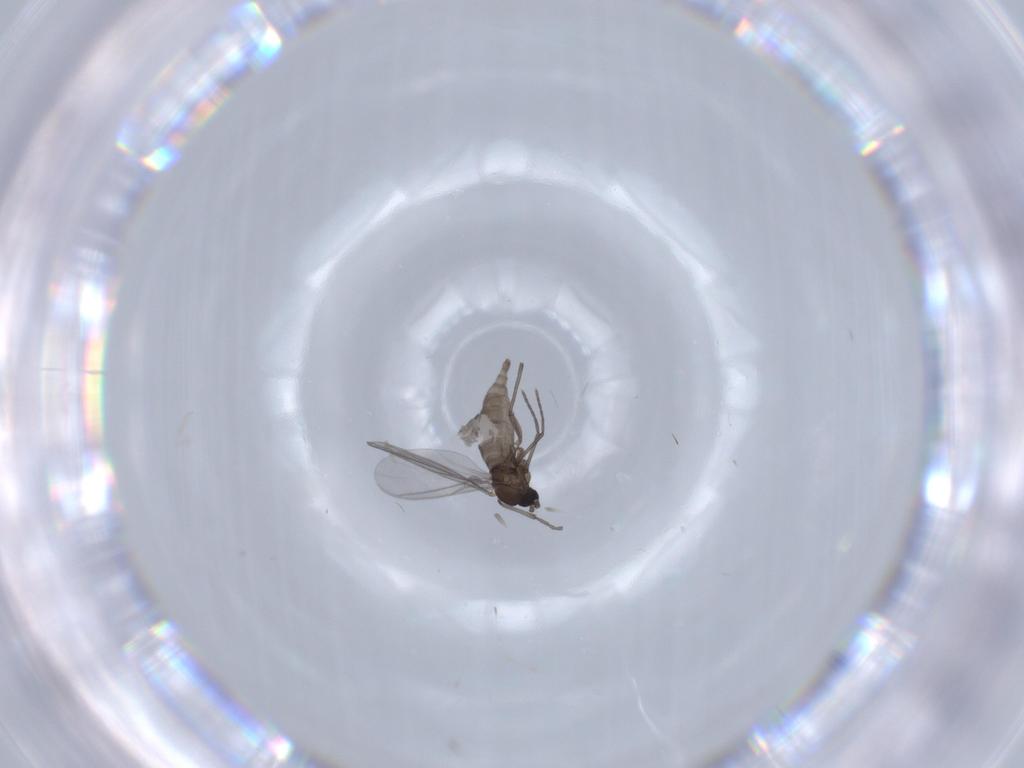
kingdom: Animalia
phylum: Arthropoda
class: Insecta
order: Diptera
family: Sciaridae
